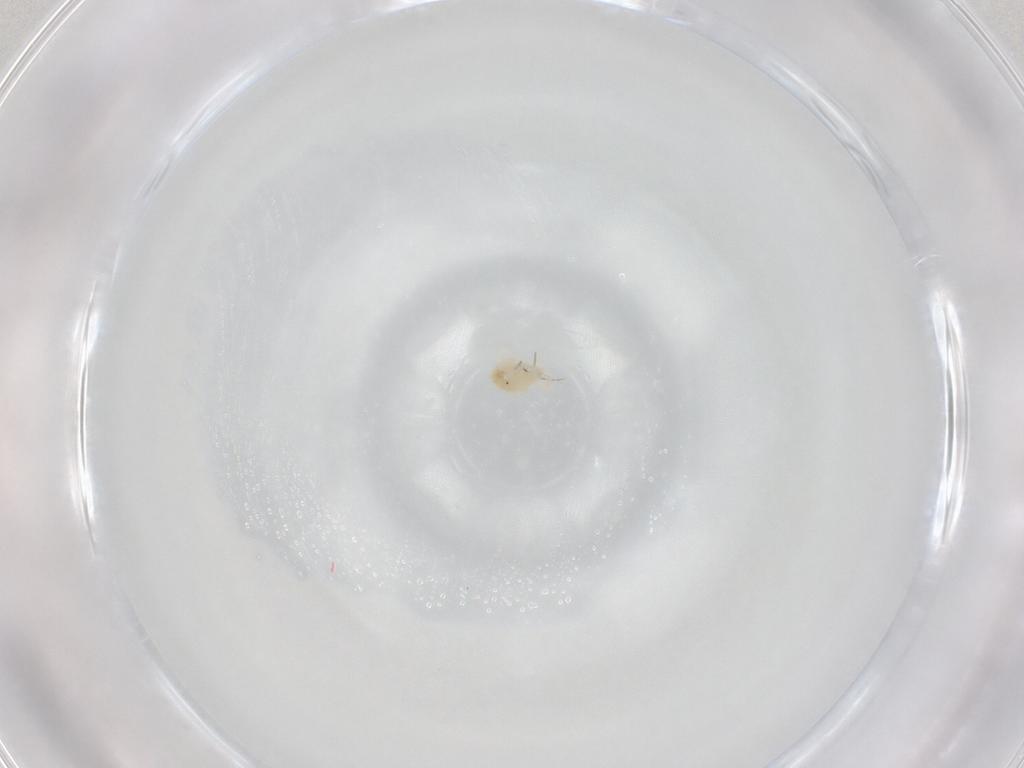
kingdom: Animalia
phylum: Arthropoda
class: Arachnida
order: Trombidiformes
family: Anystidae
